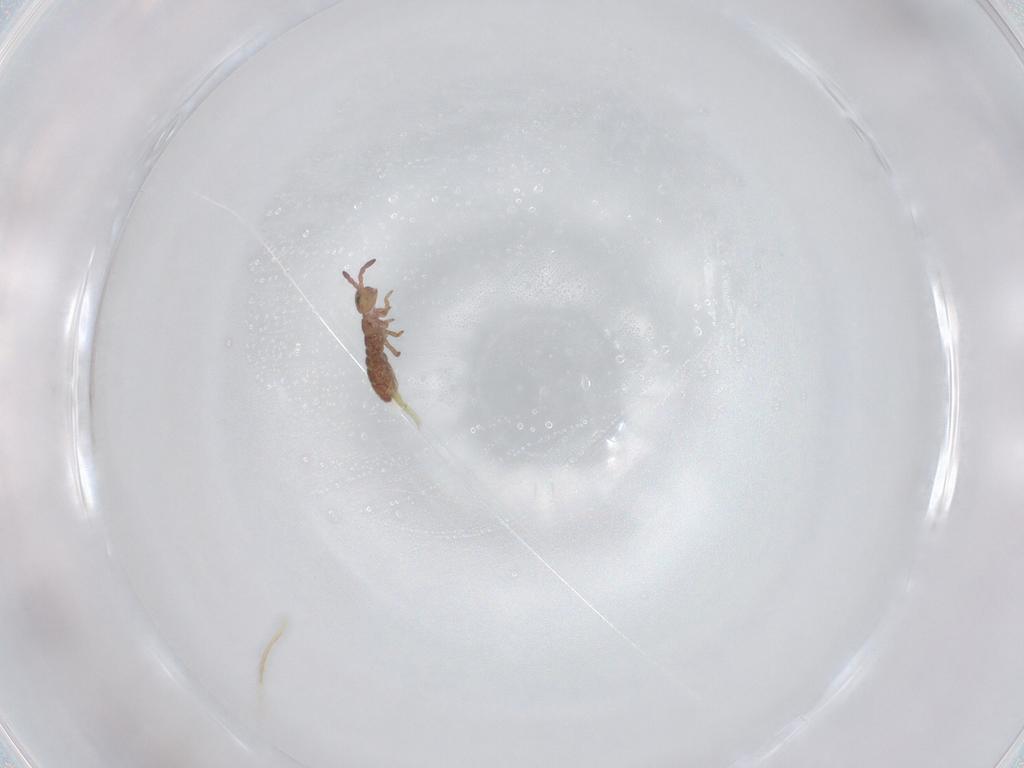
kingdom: Animalia
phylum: Arthropoda
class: Collembola
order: Entomobryomorpha
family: Isotomidae
